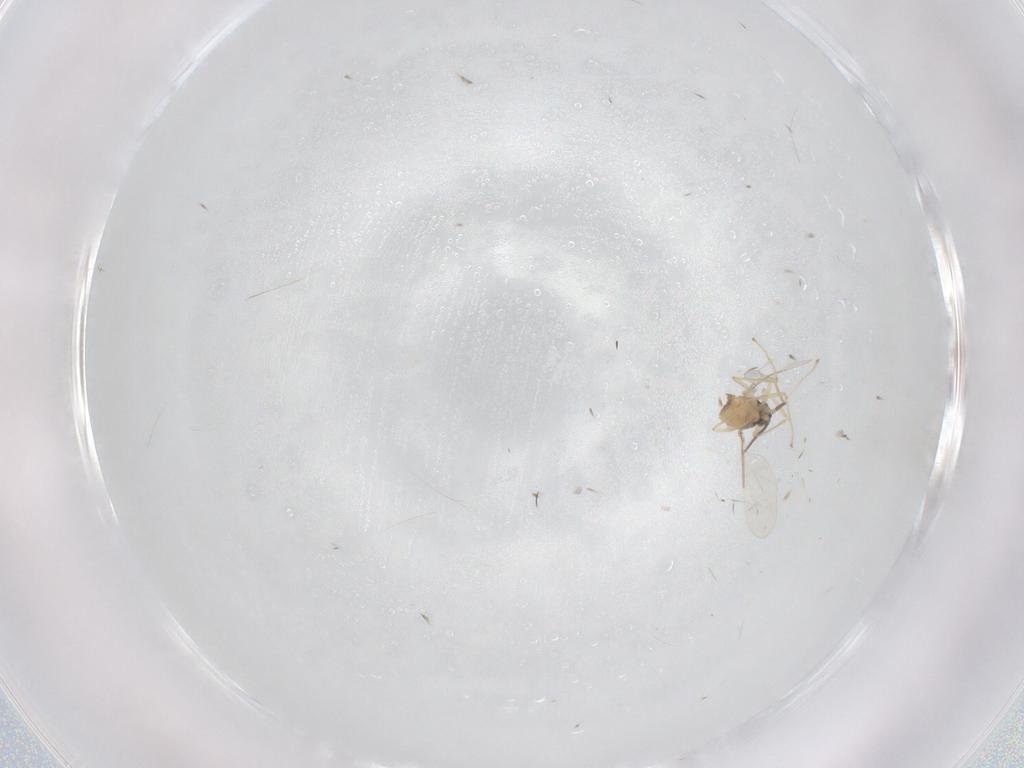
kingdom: Animalia
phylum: Arthropoda
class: Insecta
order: Diptera
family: Cecidomyiidae
